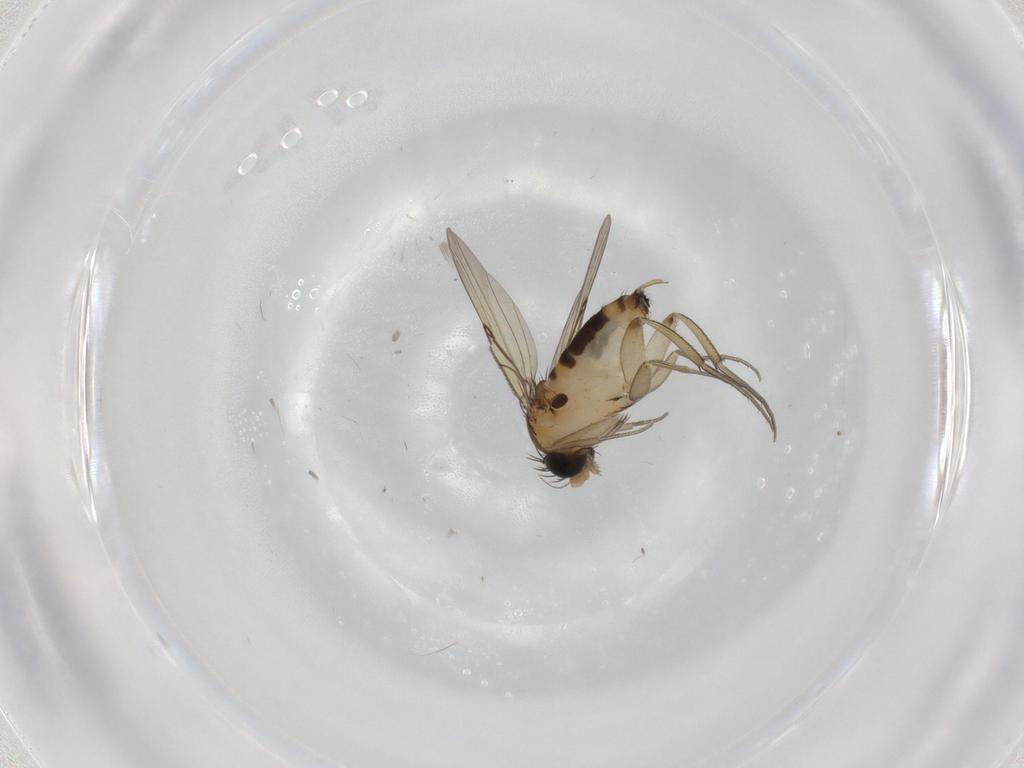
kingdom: Animalia
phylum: Arthropoda
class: Insecta
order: Diptera
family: Phoridae
